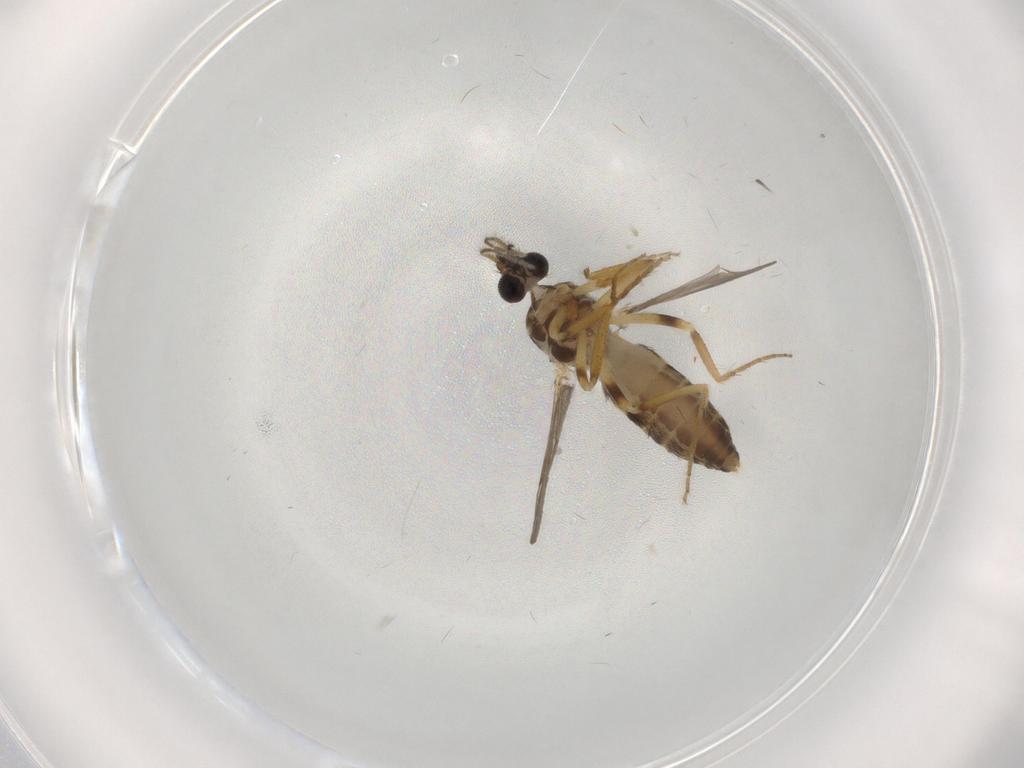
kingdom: Animalia
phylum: Arthropoda
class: Insecta
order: Diptera
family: Ceratopogonidae
